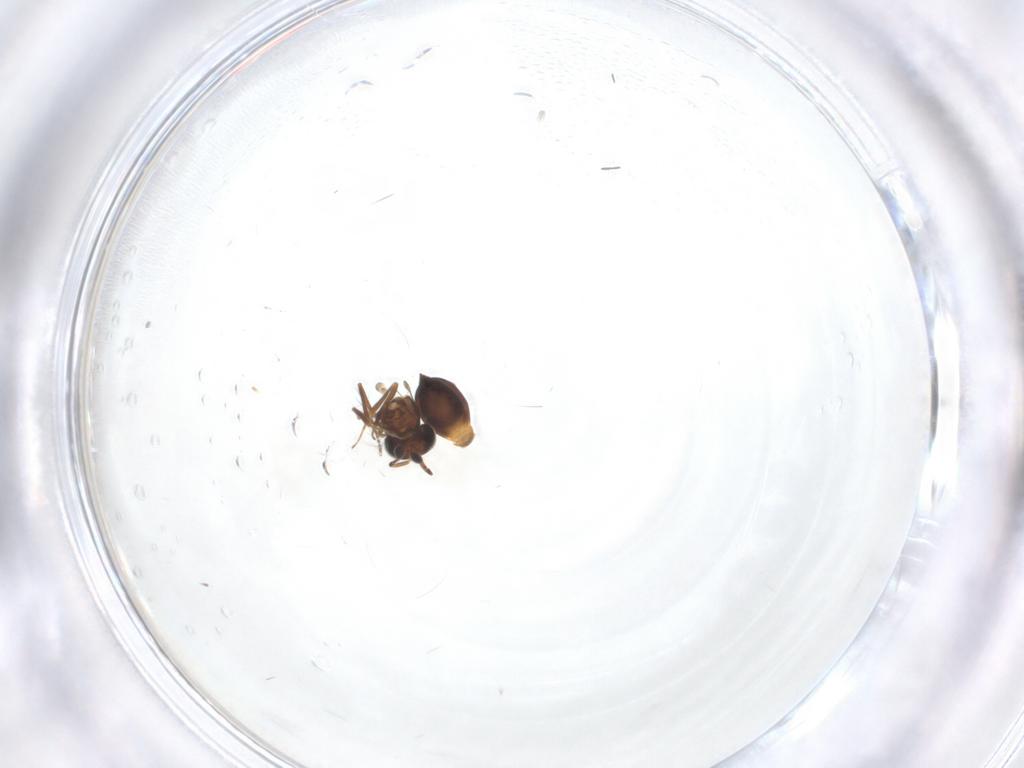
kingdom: Animalia
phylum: Arthropoda
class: Insecta
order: Hymenoptera
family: Scelionidae
